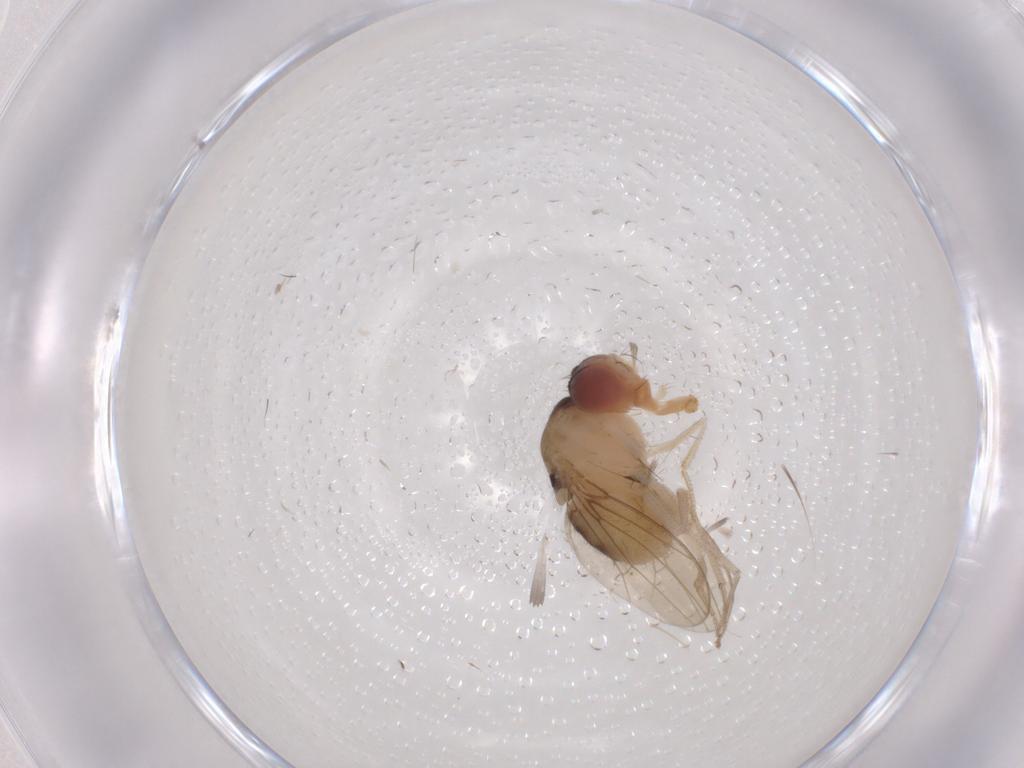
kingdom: Animalia
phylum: Arthropoda
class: Insecta
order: Diptera
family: Drosophilidae
